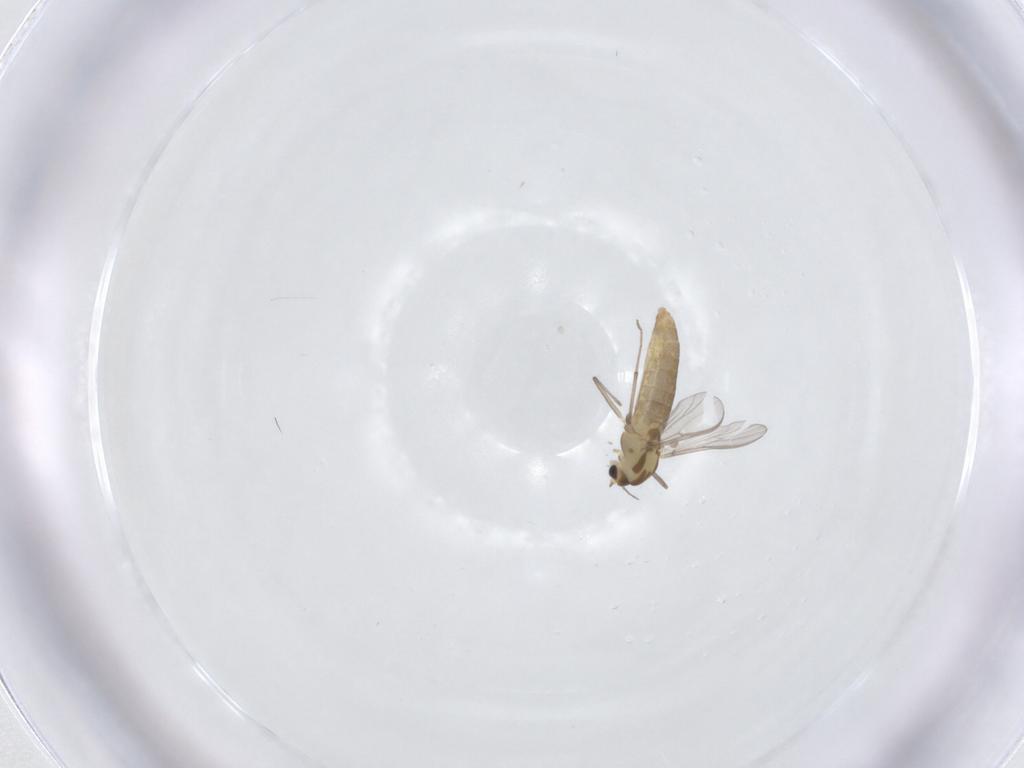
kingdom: Animalia
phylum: Arthropoda
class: Insecta
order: Diptera
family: Chironomidae
